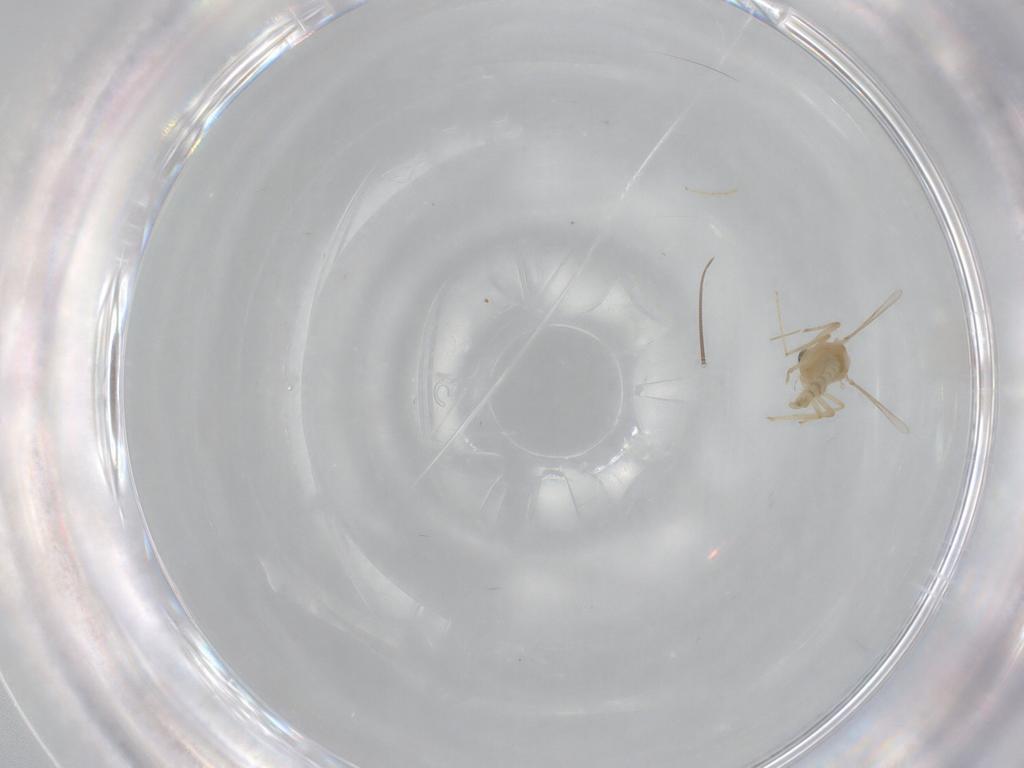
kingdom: Animalia
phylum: Arthropoda
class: Insecta
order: Diptera
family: Chironomidae
